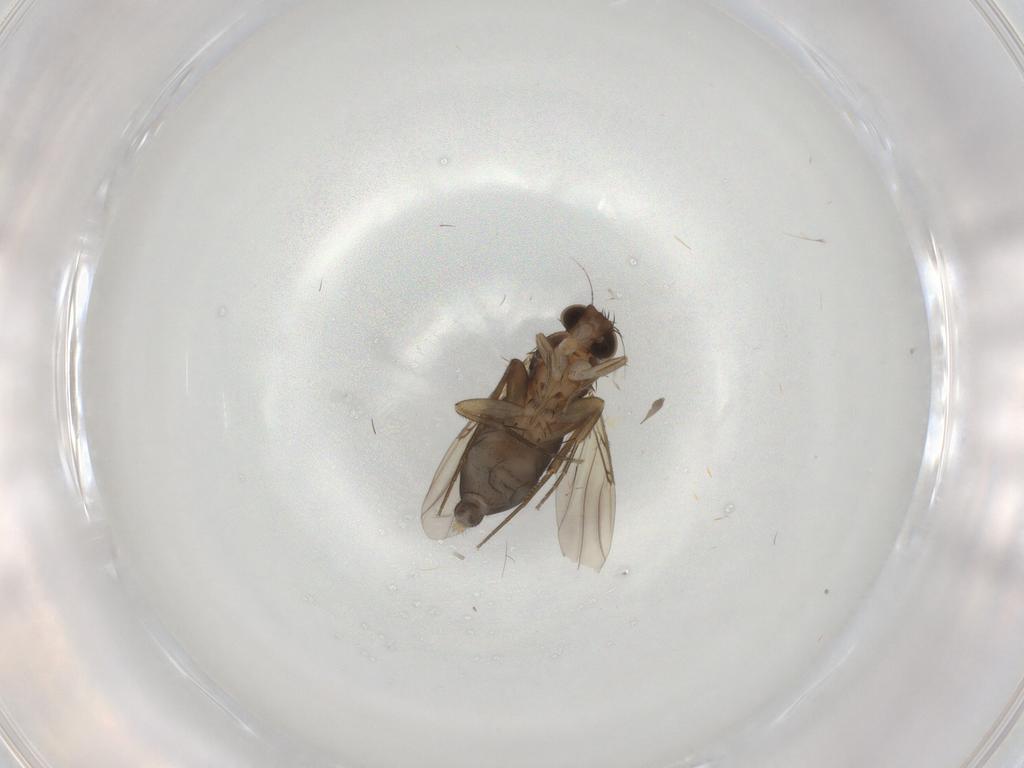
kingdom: Animalia
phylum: Arthropoda
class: Insecta
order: Diptera
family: Phoridae
